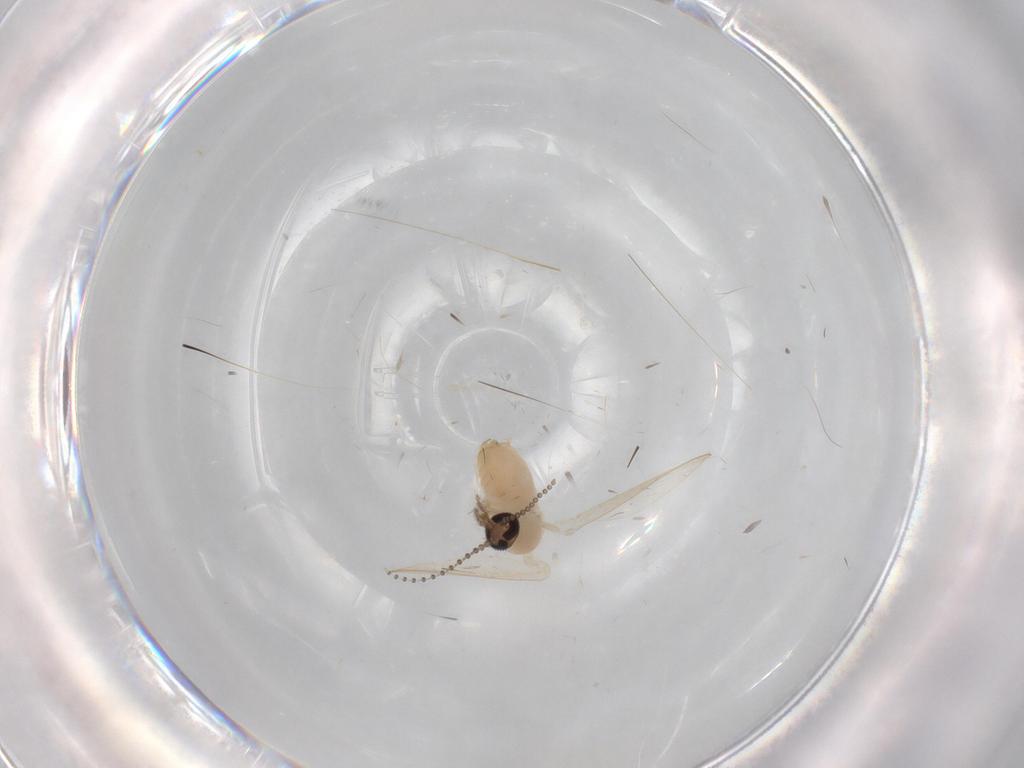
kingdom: Animalia
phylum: Arthropoda
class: Insecta
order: Diptera
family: Psychodidae
